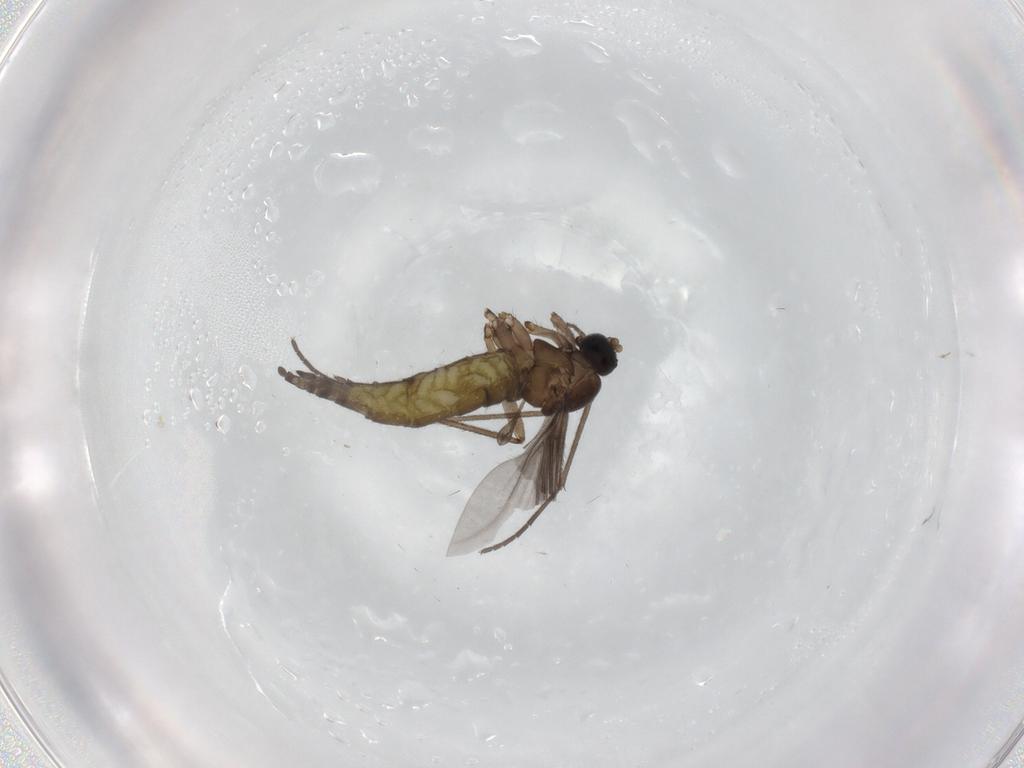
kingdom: Animalia
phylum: Arthropoda
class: Insecta
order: Diptera
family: Sciaridae
